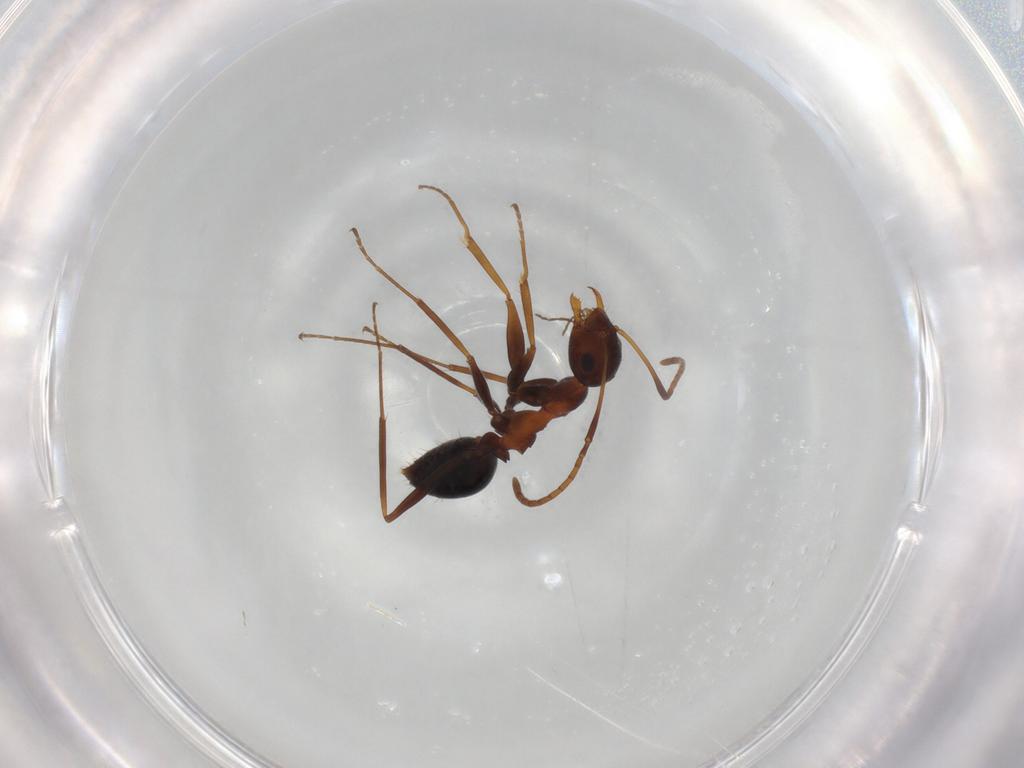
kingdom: Animalia
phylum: Arthropoda
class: Insecta
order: Hymenoptera
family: Formicidae
